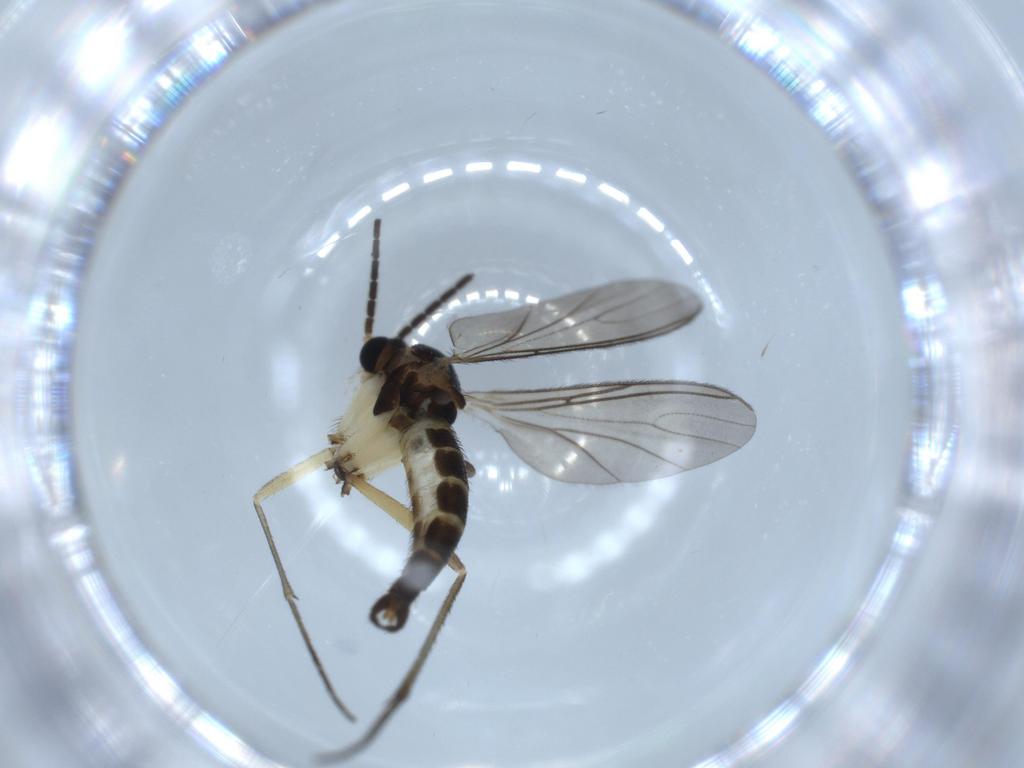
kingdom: Animalia
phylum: Arthropoda
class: Insecta
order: Diptera
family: Sciaridae
